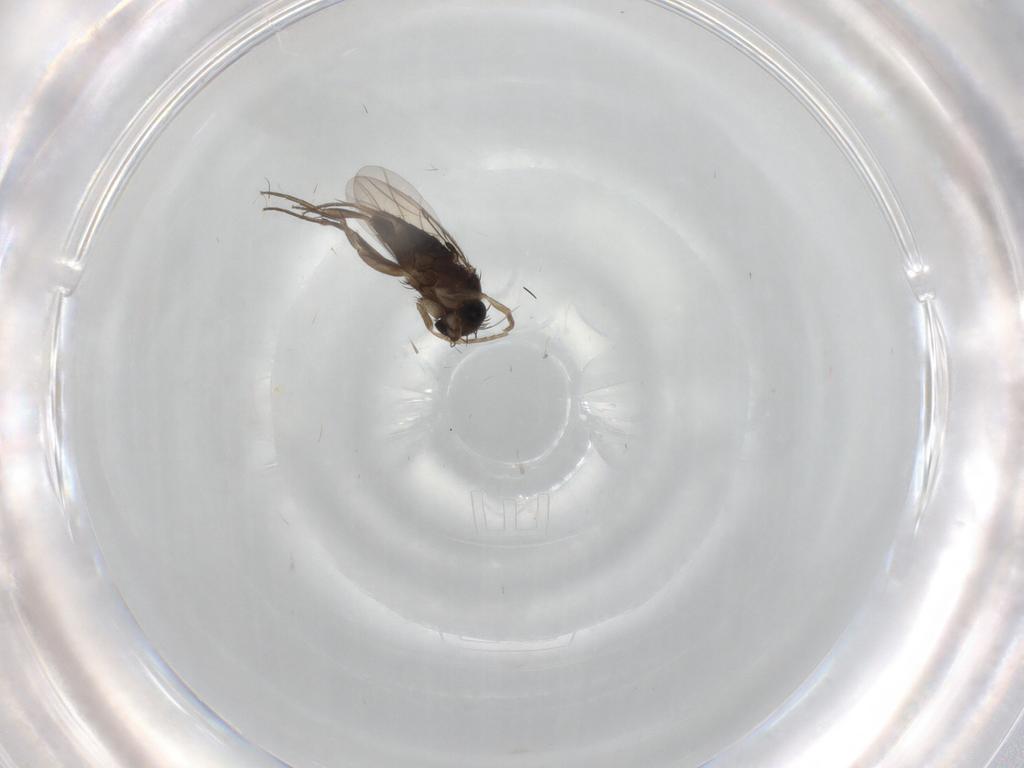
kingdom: Animalia
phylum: Arthropoda
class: Insecta
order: Diptera
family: Phoridae
